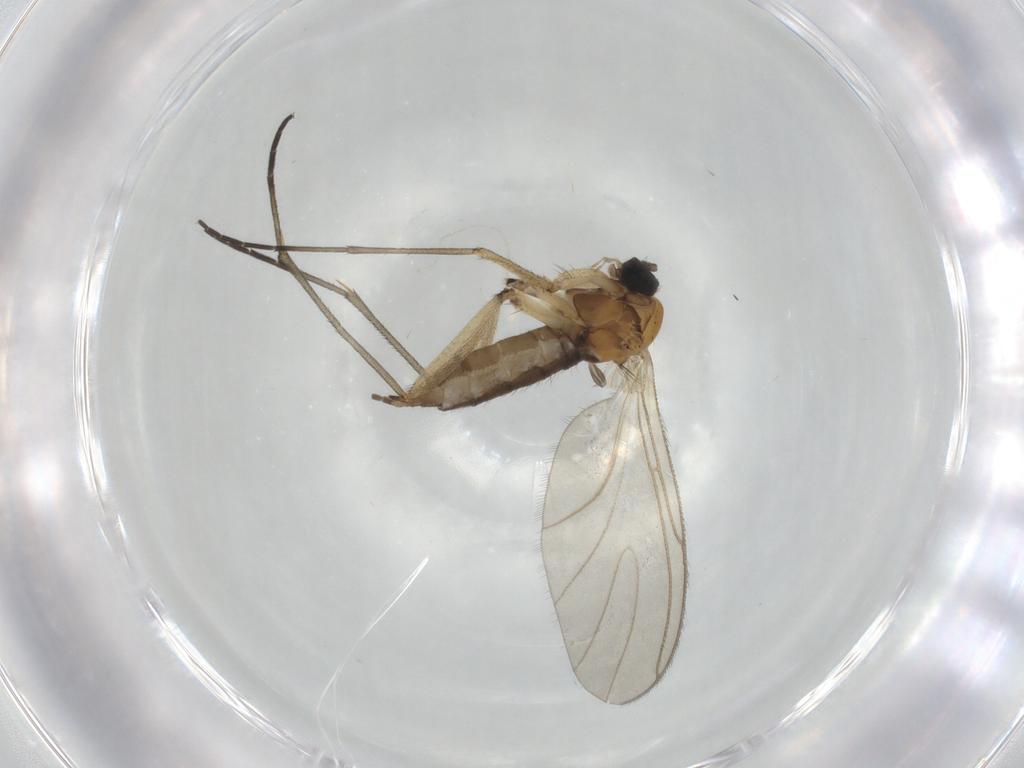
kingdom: Animalia
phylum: Arthropoda
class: Insecta
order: Diptera
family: Sciaridae
